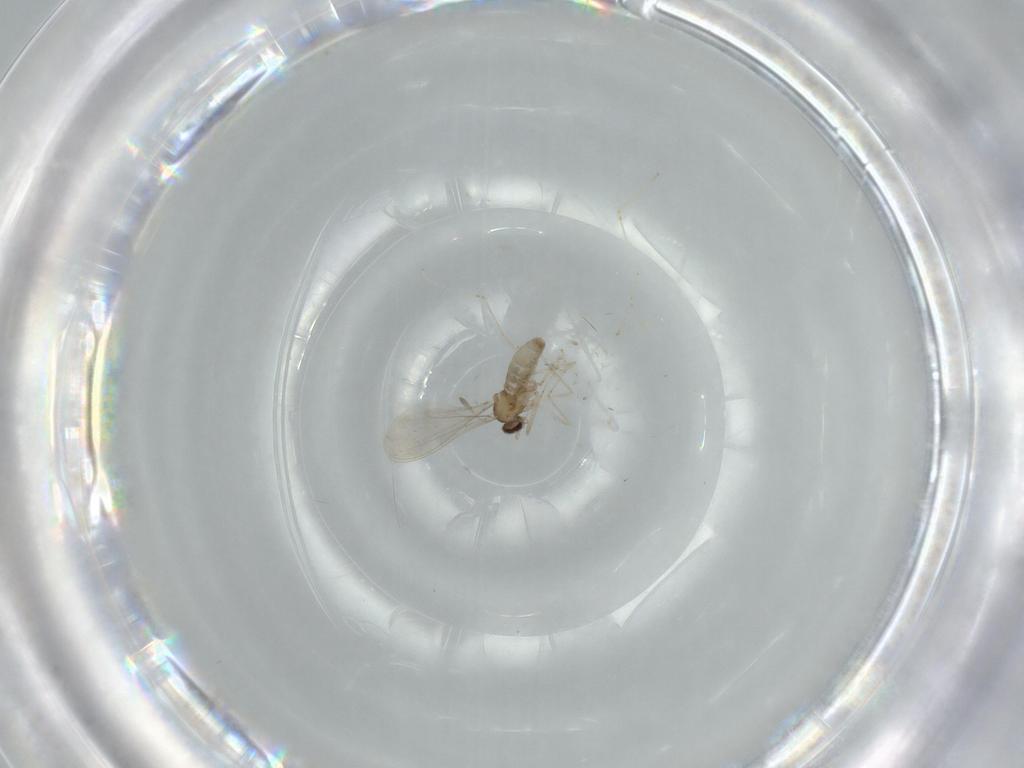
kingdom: Animalia
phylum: Arthropoda
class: Insecta
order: Diptera
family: Cecidomyiidae
